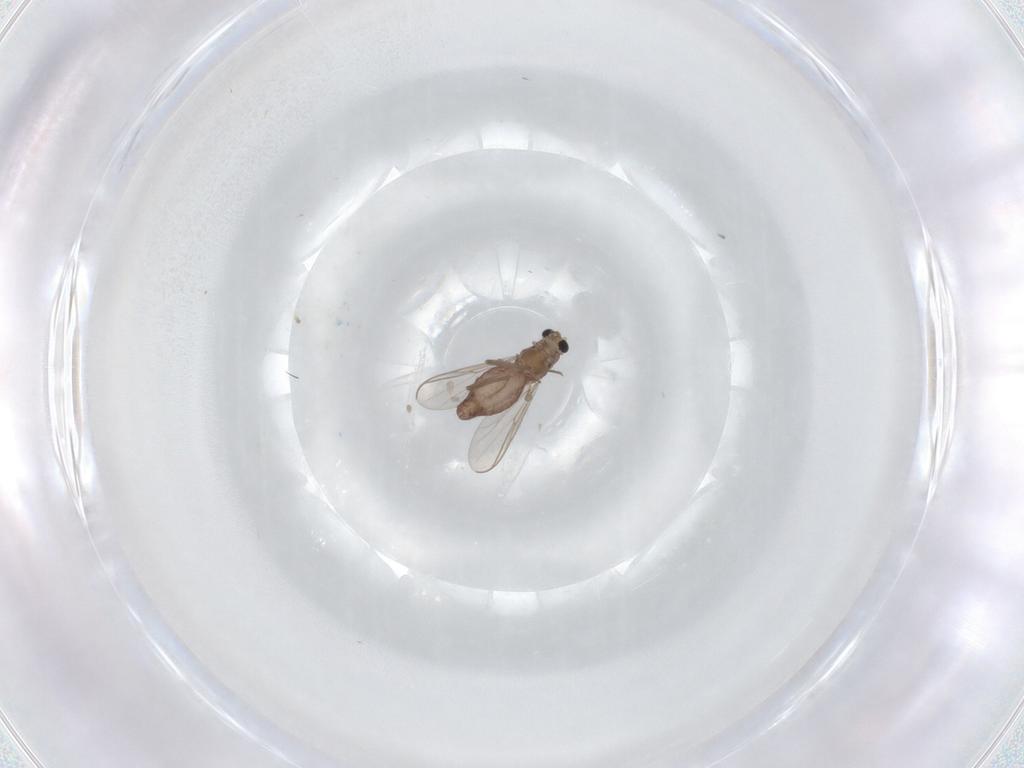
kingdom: Animalia
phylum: Arthropoda
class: Insecta
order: Diptera
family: Chironomidae
